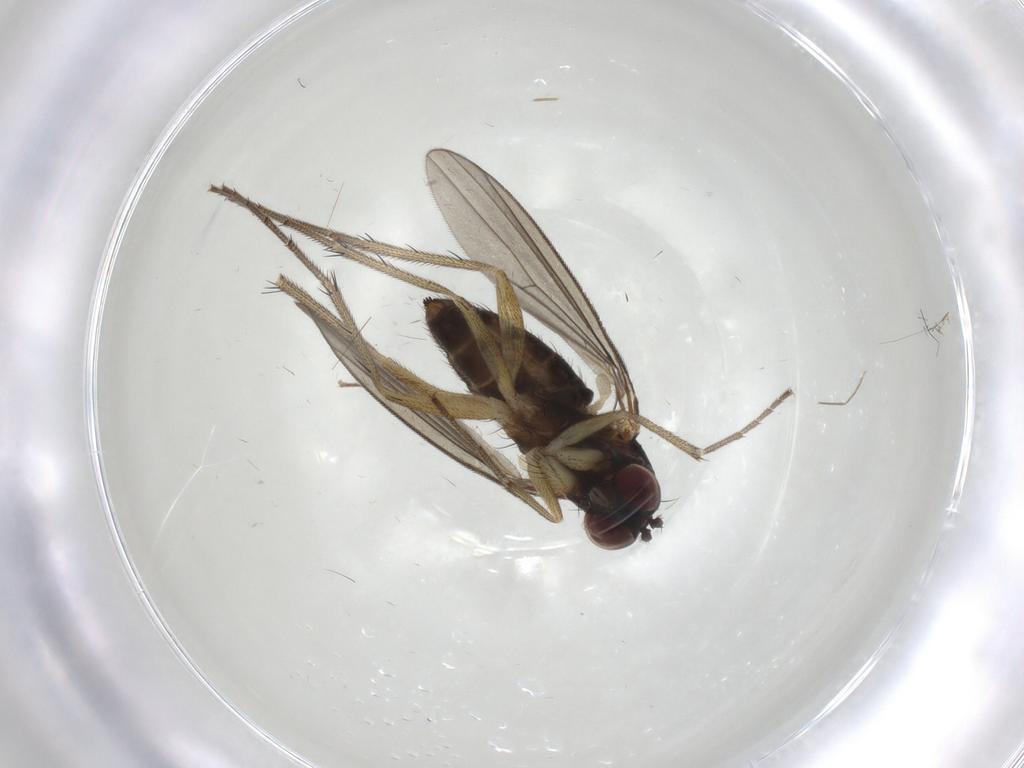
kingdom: Animalia
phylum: Arthropoda
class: Insecta
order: Diptera
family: Dolichopodidae
